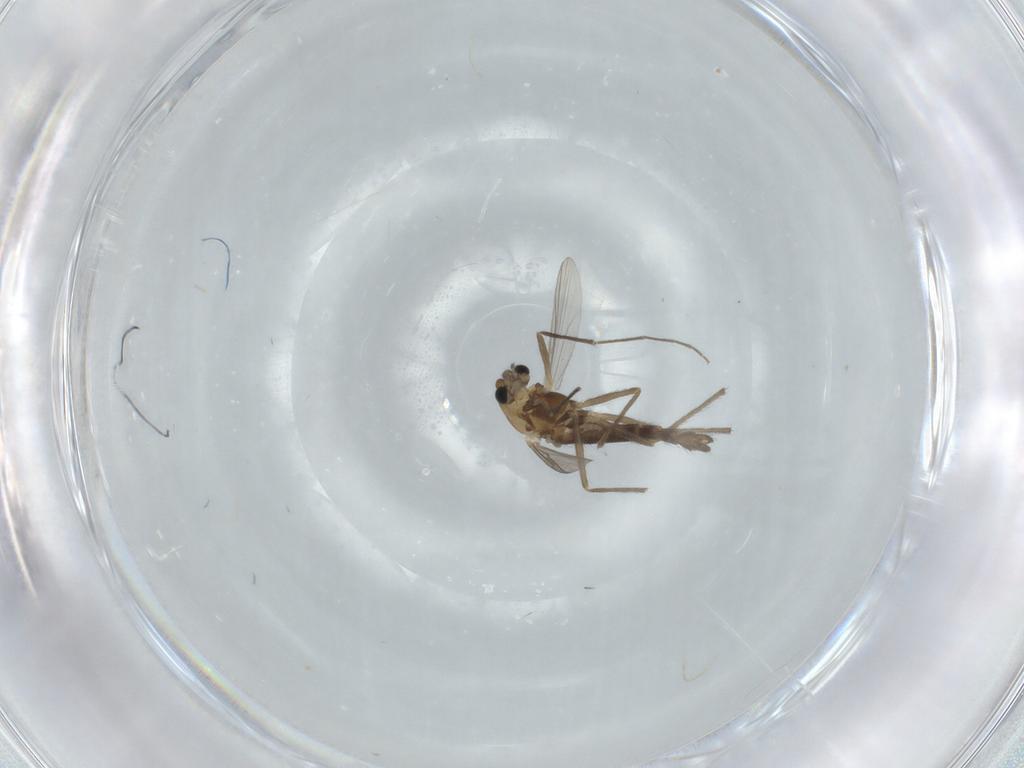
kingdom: Animalia
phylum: Arthropoda
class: Insecta
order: Diptera
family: Chironomidae
